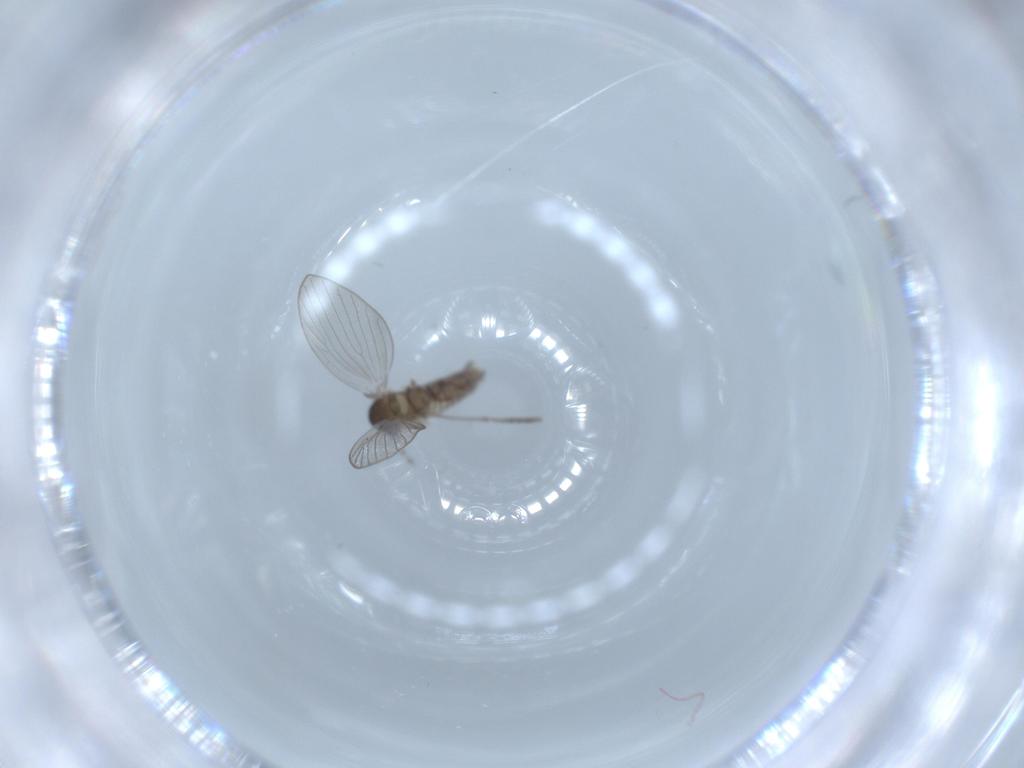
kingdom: Animalia
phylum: Arthropoda
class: Insecta
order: Diptera
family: Psychodidae
